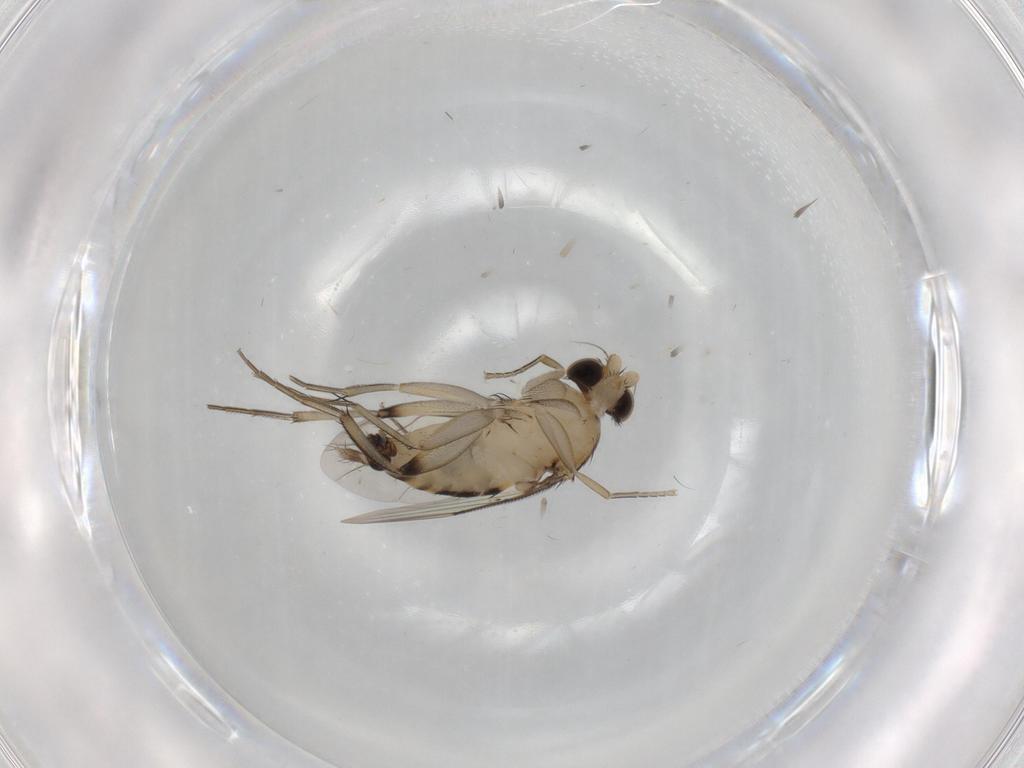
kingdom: Animalia
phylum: Arthropoda
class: Insecta
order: Diptera
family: Phoridae
